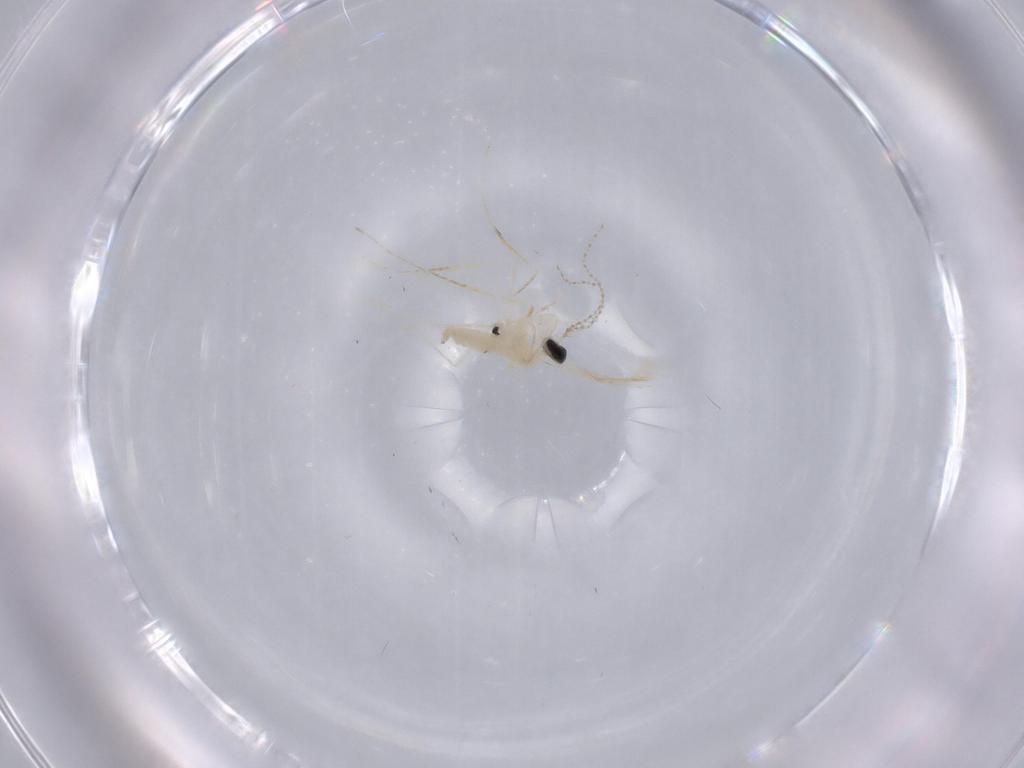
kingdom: Animalia
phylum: Arthropoda
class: Insecta
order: Diptera
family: Cecidomyiidae
